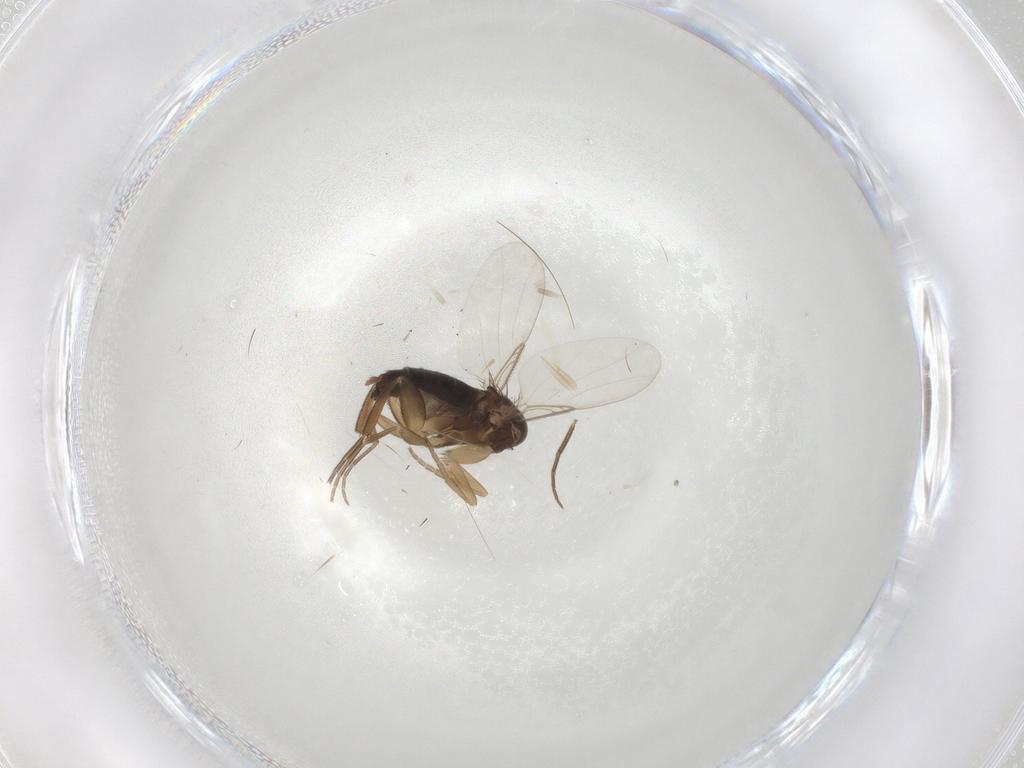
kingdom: Animalia
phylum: Arthropoda
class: Insecta
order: Diptera
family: Phoridae
